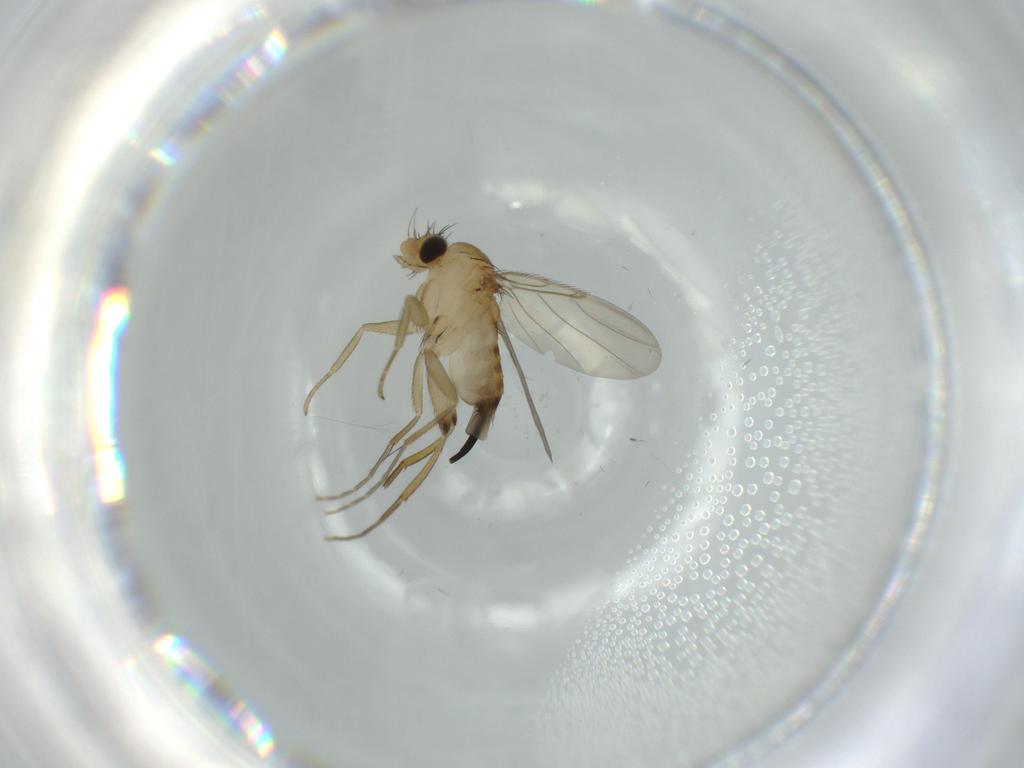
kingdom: Animalia
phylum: Arthropoda
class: Insecta
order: Diptera
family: Phoridae
